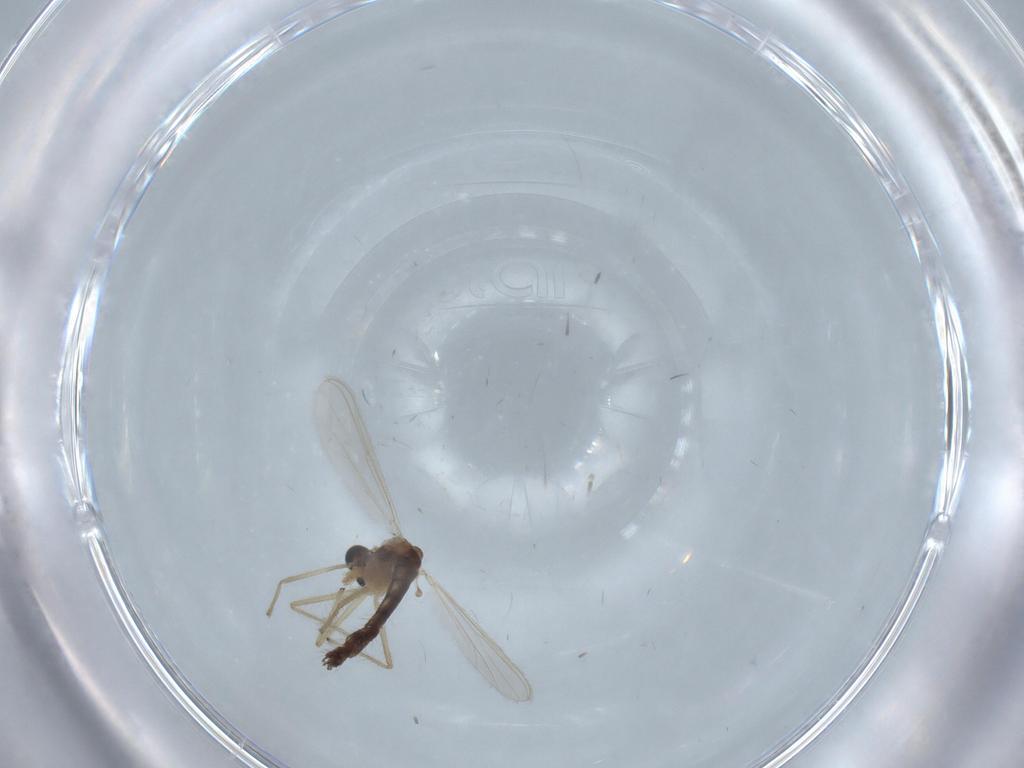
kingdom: Animalia
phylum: Arthropoda
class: Insecta
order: Diptera
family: Chironomidae
